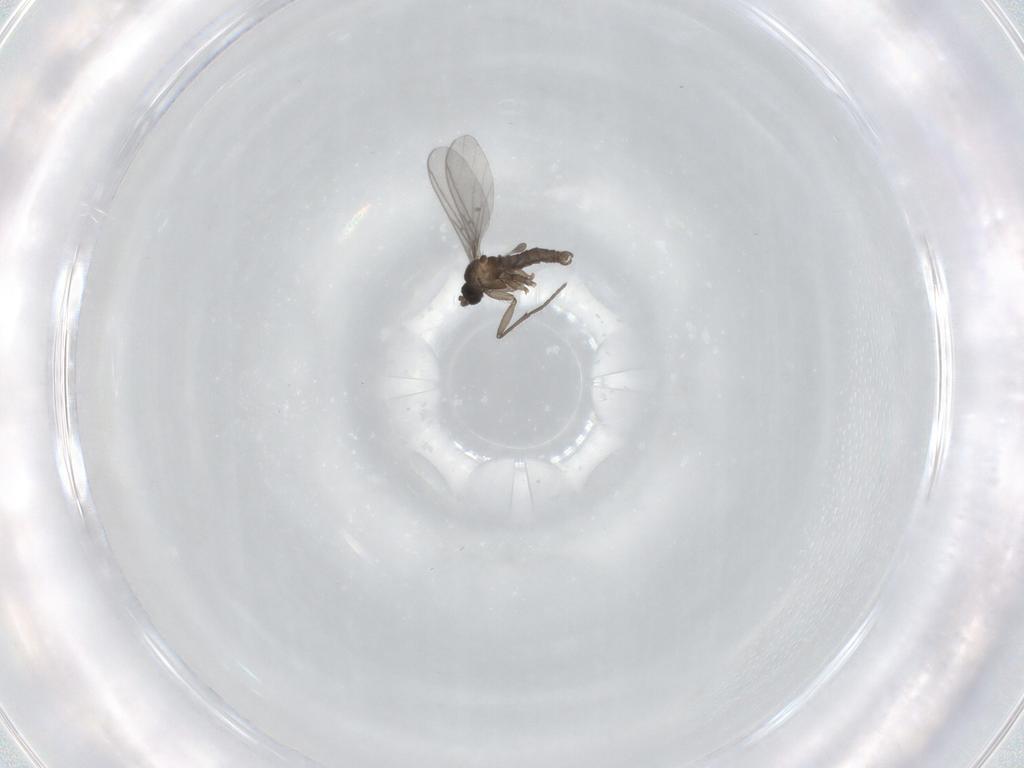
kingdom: Animalia
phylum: Arthropoda
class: Insecta
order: Diptera
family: Sciaridae
